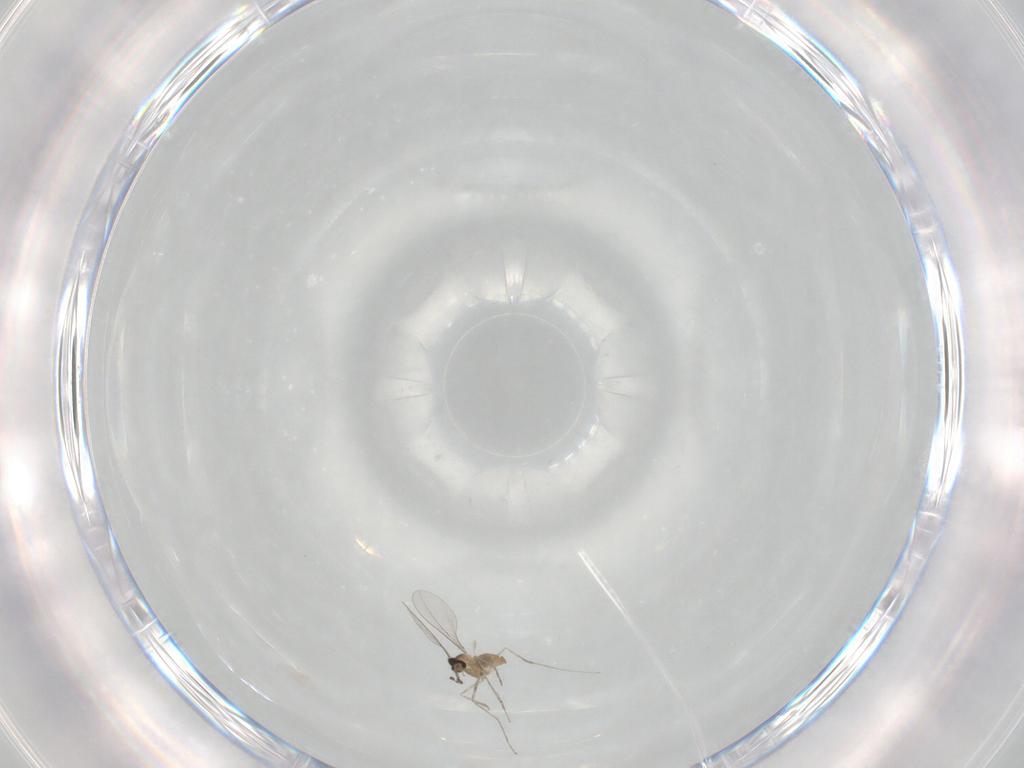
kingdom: Animalia
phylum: Arthropoda
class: Insecta
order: Diptera
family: Cecidomyiidae
